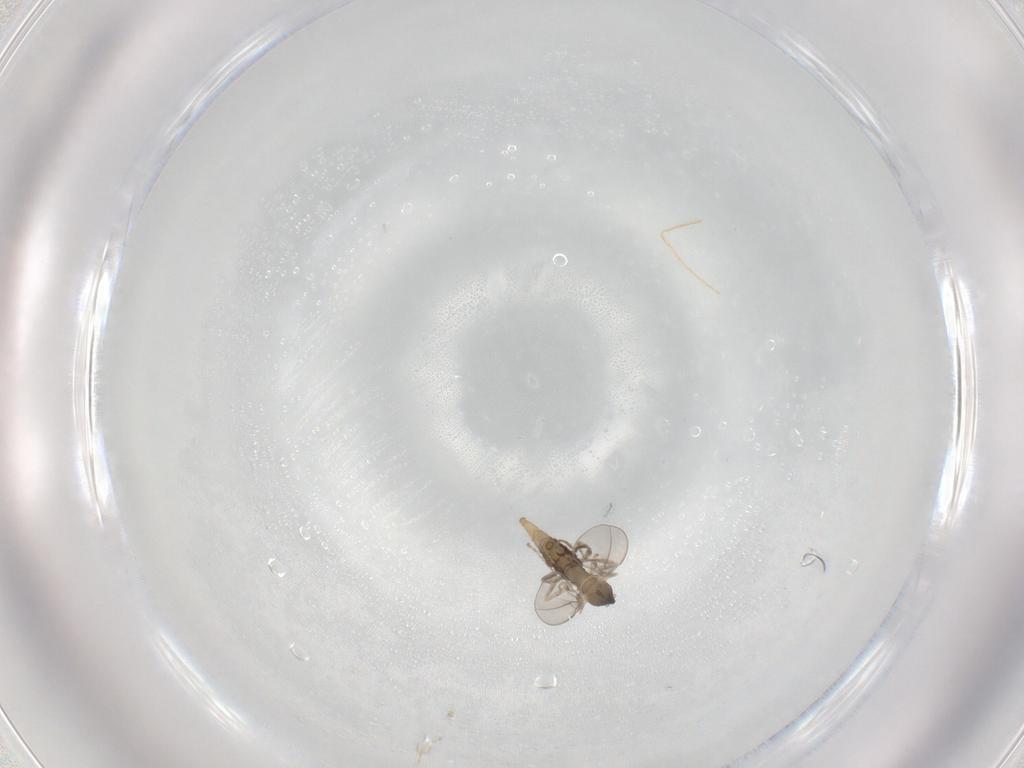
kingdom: Animalia
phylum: Arthropoda
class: Insecta
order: Diptera
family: Cecidomyiidae
